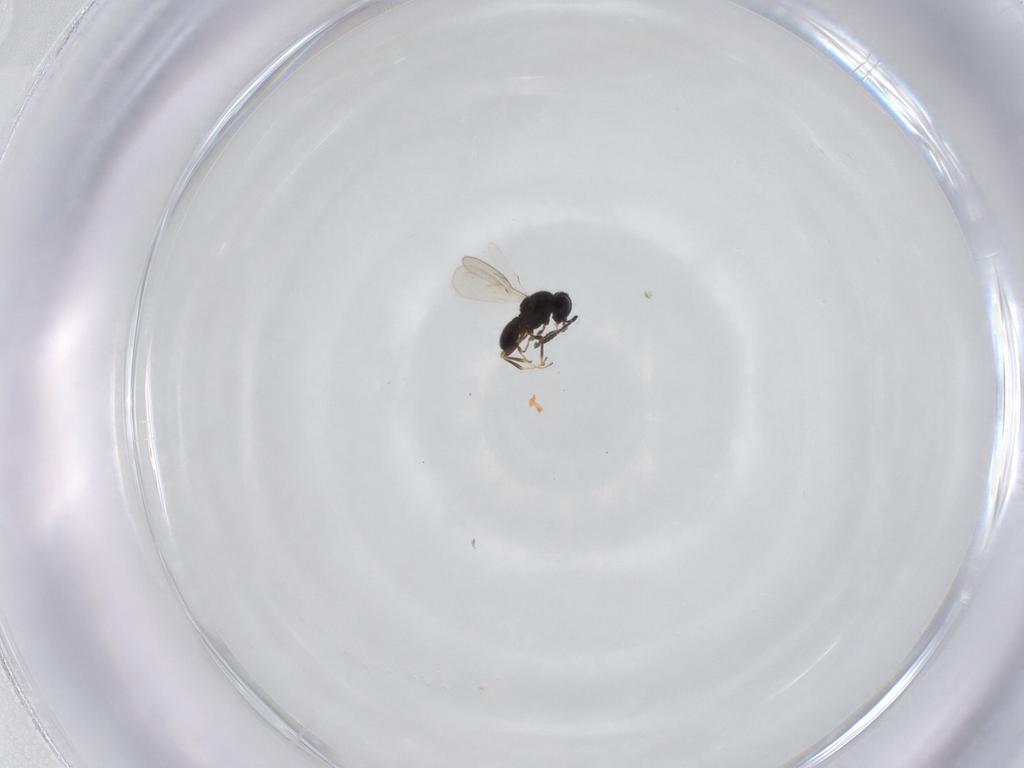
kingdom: Animalia
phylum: Arthropoda
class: Insecta
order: Hymenoptera
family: Scelionidae
